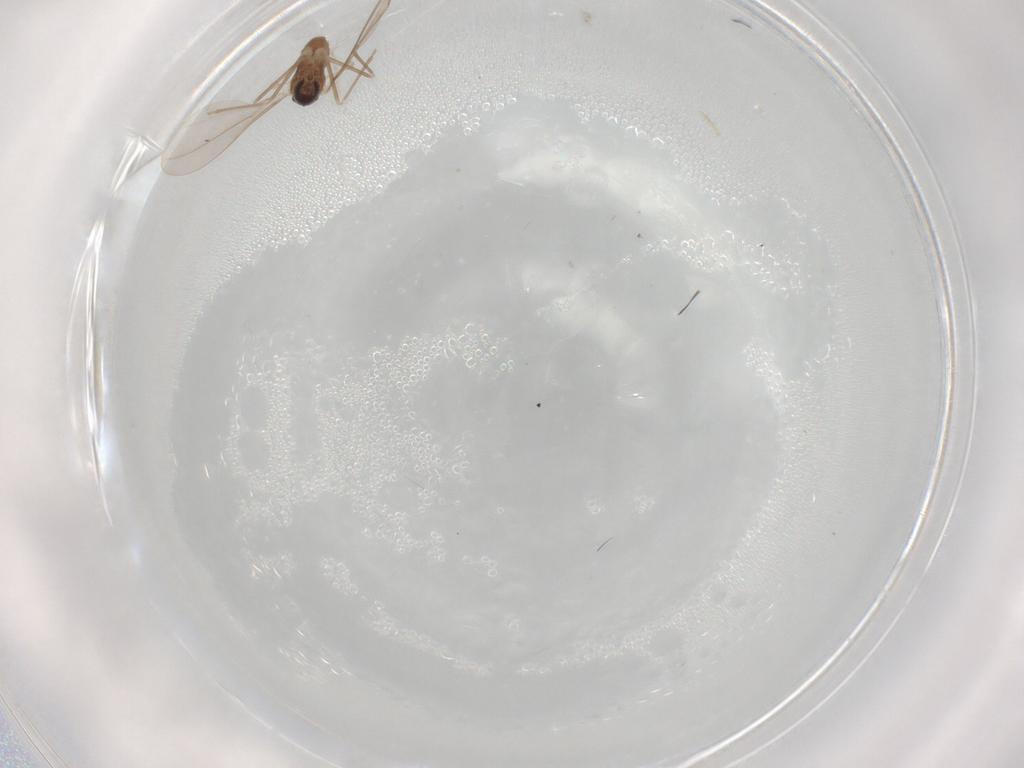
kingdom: Animalia
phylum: Arthropoda
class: Insecta
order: Diptera
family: Cecidomyiidae
